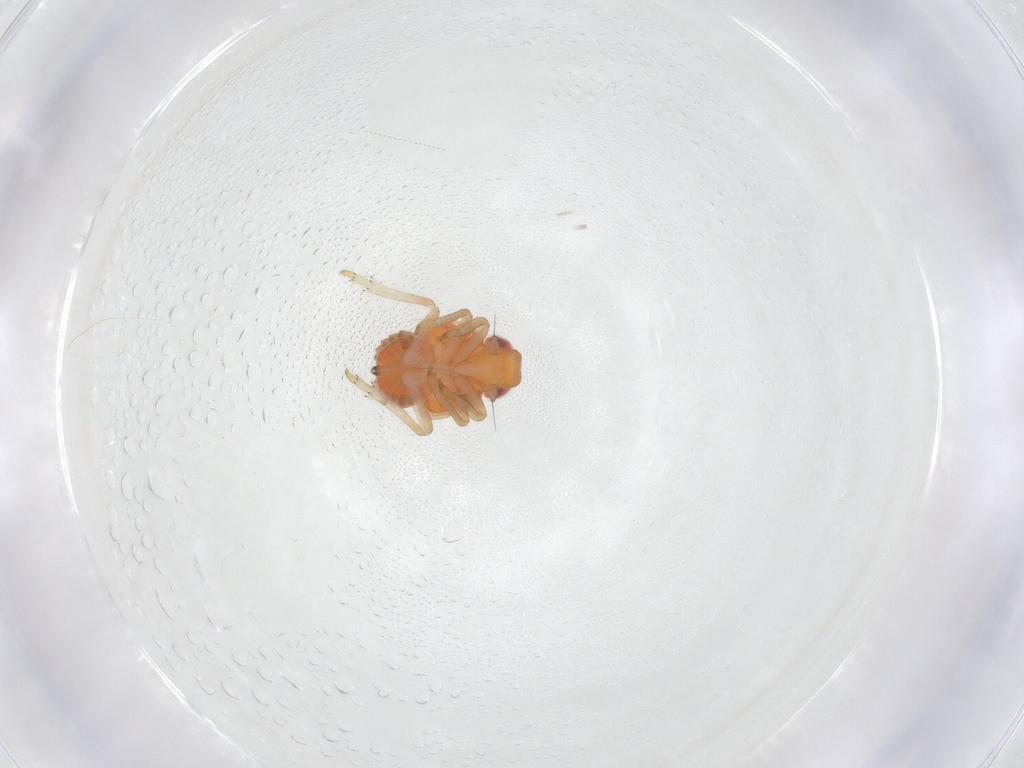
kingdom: Animalia
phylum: Arthropoda
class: Insecta
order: Hemiptera
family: Fulgoroidea_incertae_sedis
